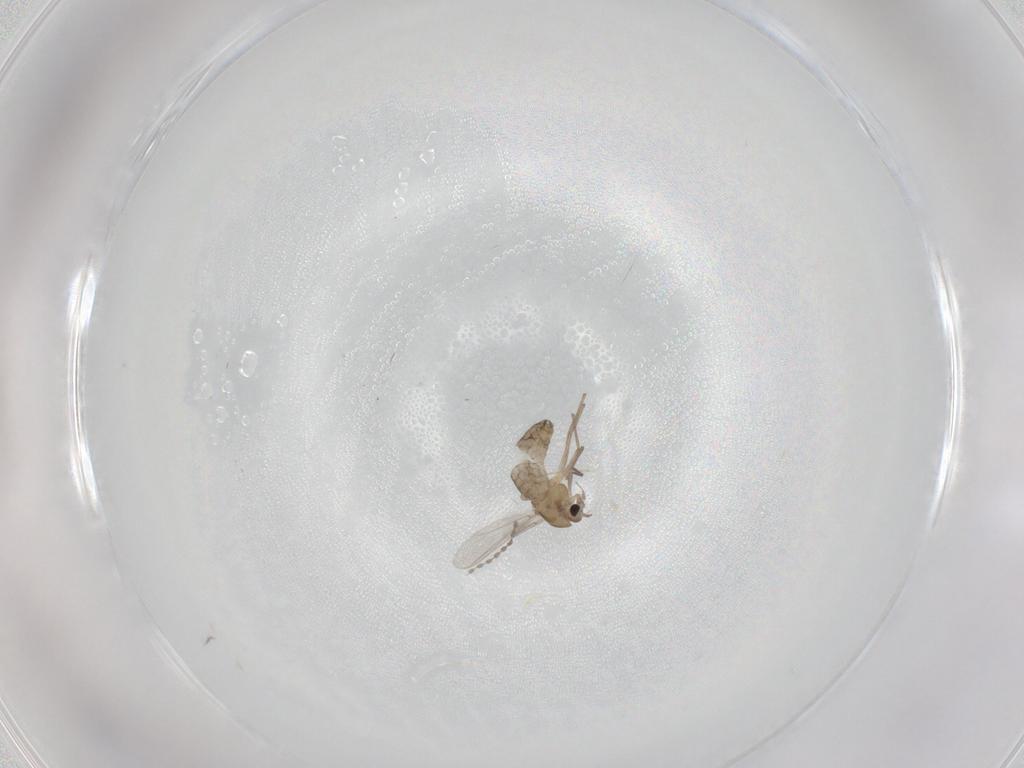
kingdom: Animalia
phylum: Arthropoda
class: Insecta
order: Diptera
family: Chironomidae
